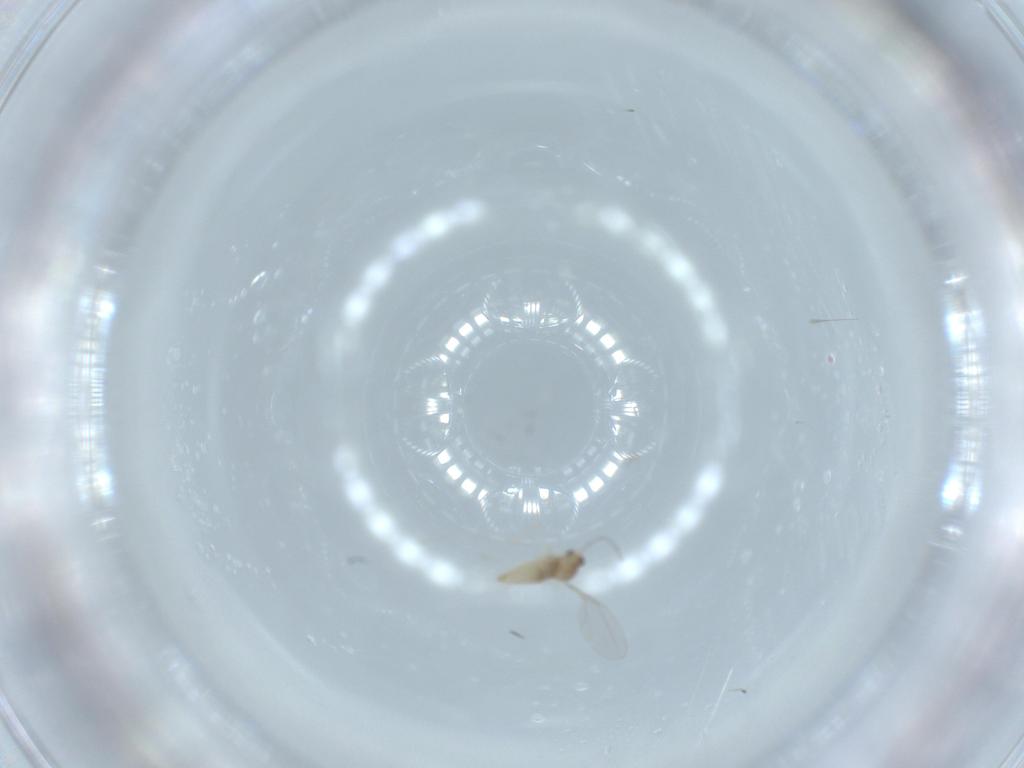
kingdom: Animalia
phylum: Arthropoda
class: Insecta
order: Diptera
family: Cecidomyiidae
